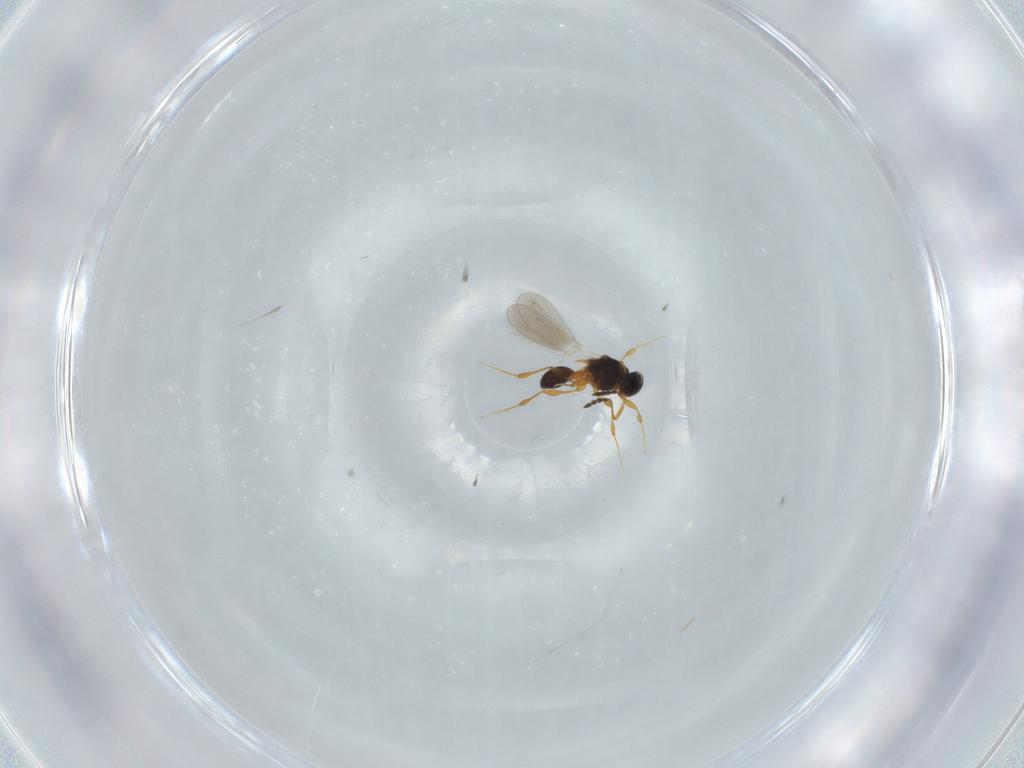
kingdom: Animalia
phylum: Arthropoda
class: Insecta
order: Hymenoptera
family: Platygastridae
